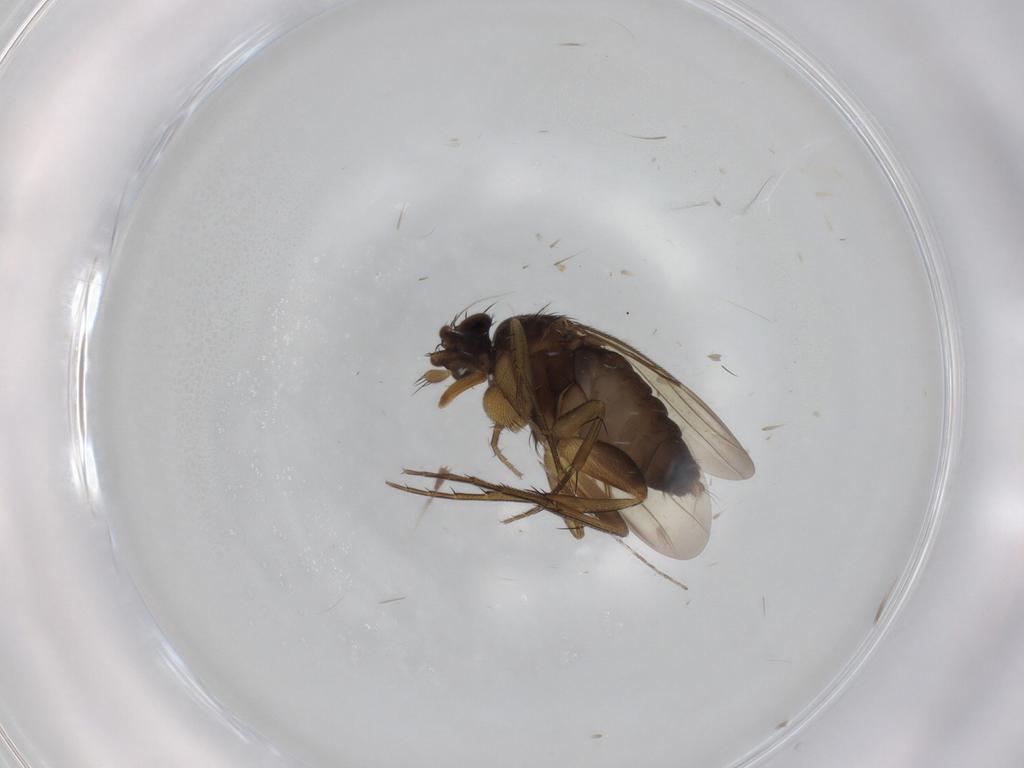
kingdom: Animalia
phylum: Arthropoda
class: Insecta
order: Diptera
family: Phoridae
